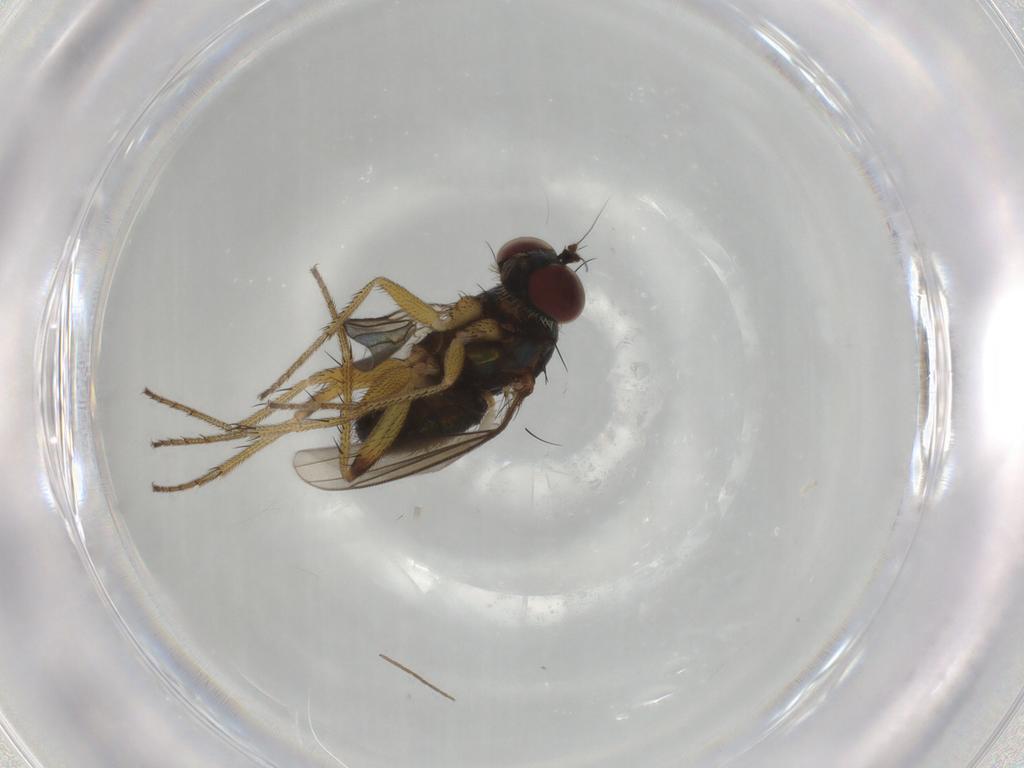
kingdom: Animalia
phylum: Arthropoda
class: Insecta
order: Diptera
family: Dolichopodidae
